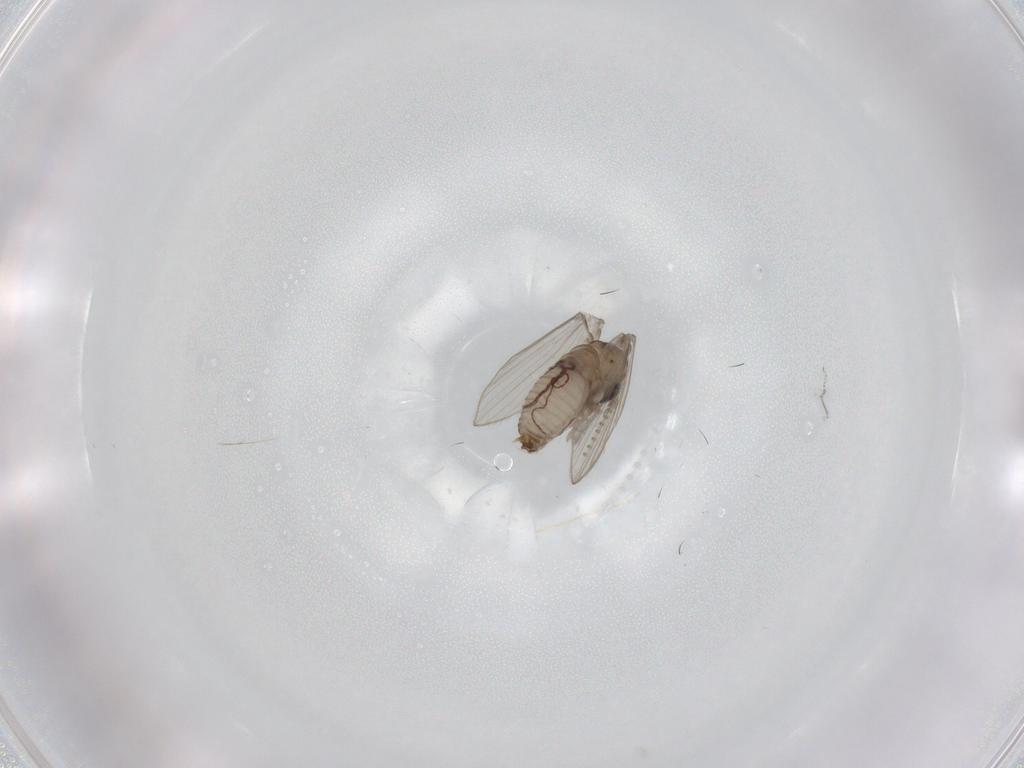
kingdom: Animalia
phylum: Arthropoda
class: Insecta
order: Diptera
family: Psychodidae
